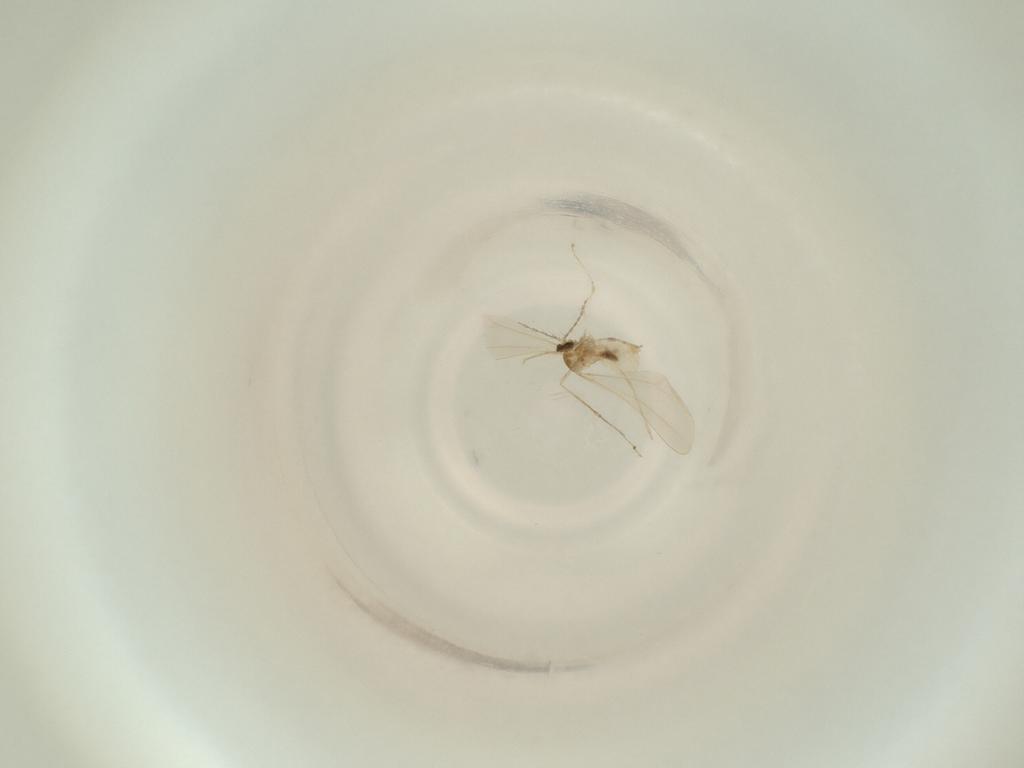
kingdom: Animalia
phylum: Arthropoda
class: Insecta
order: Diptera
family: Cecidomyiidae
